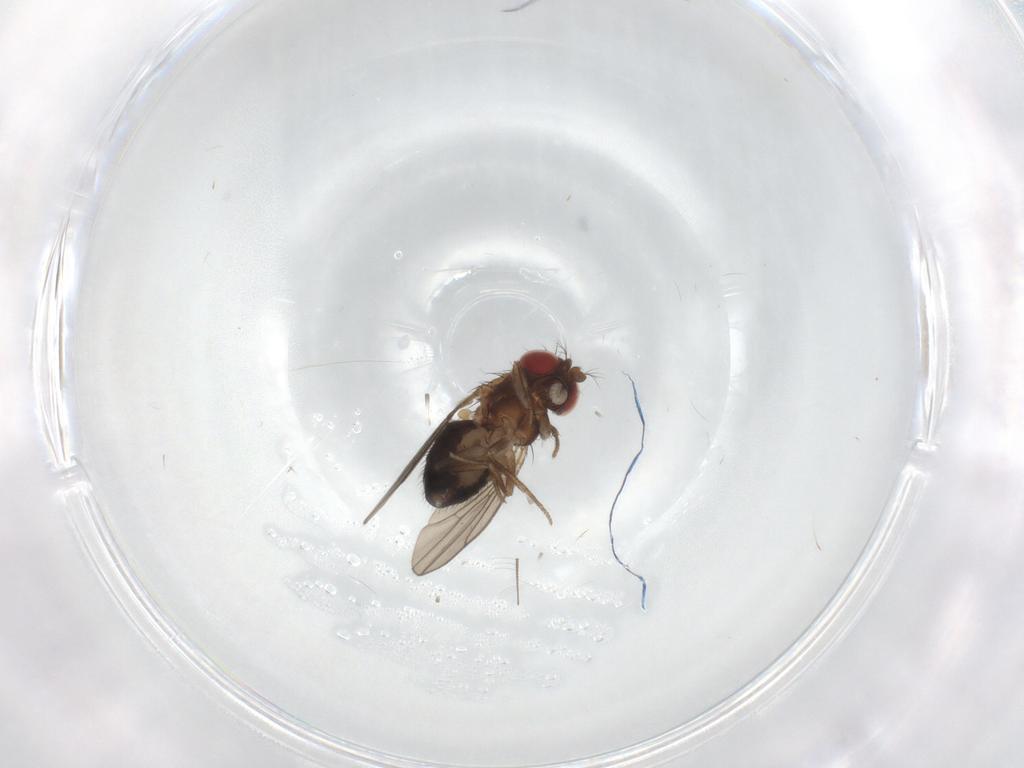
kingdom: Animalia
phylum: Arthropoda
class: Insecta
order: Diptera
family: Drosophilidae
